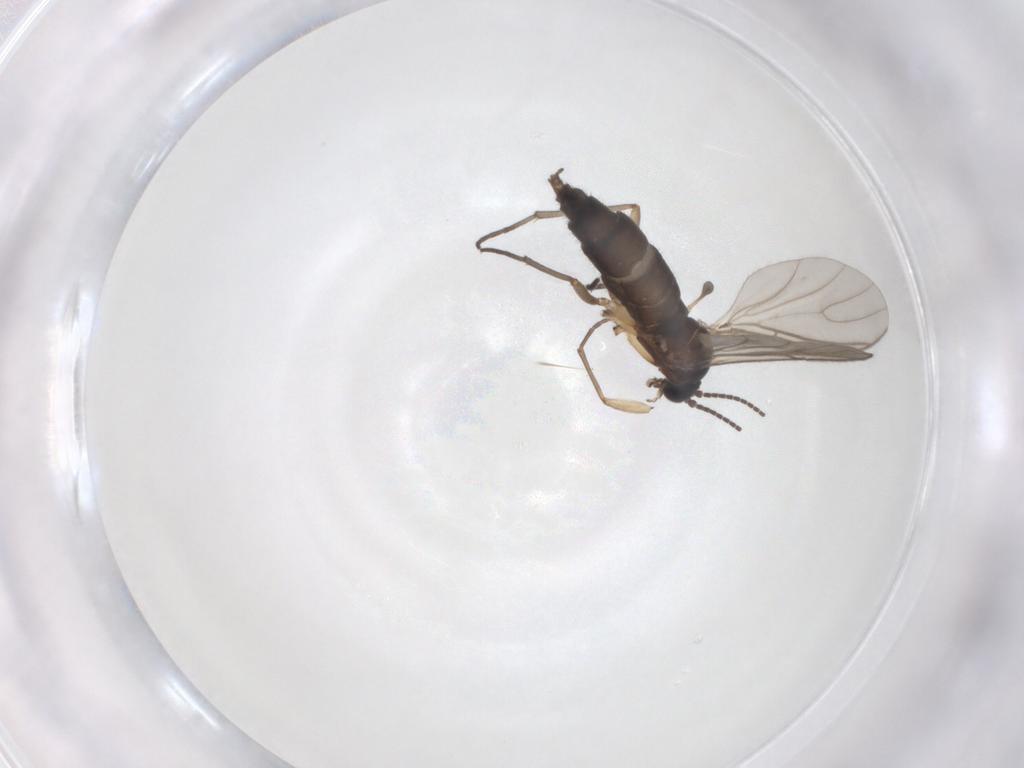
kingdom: Animalia
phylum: Arthropoda
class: Insecta
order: Diptera
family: Sciaridae
